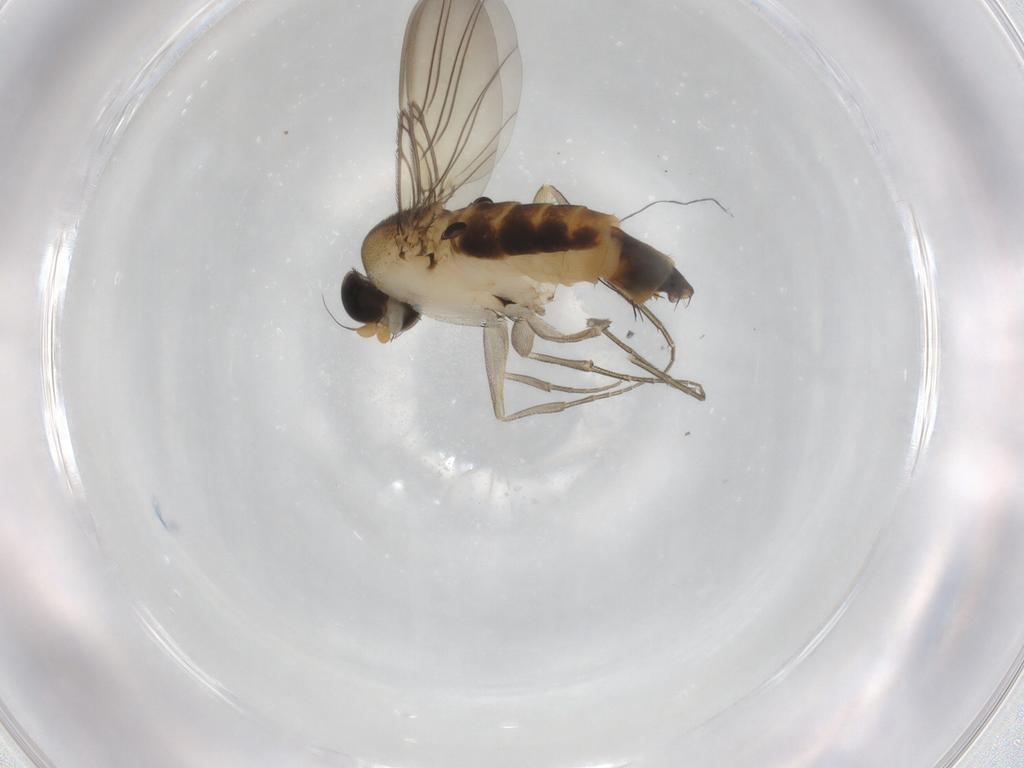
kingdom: Animalia
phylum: Arthropoda
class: Insecta
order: Diptera
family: Phoridae
